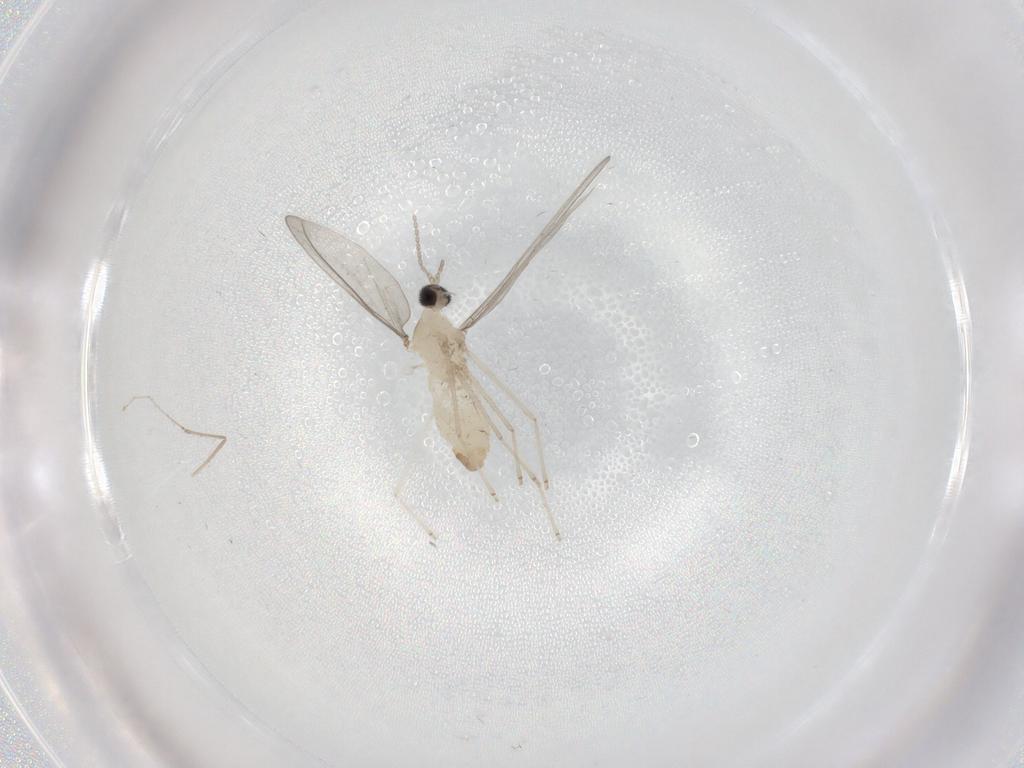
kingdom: Animalia
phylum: Arthropoda
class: Insecta
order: Diptera
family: Cecidomyiidae
